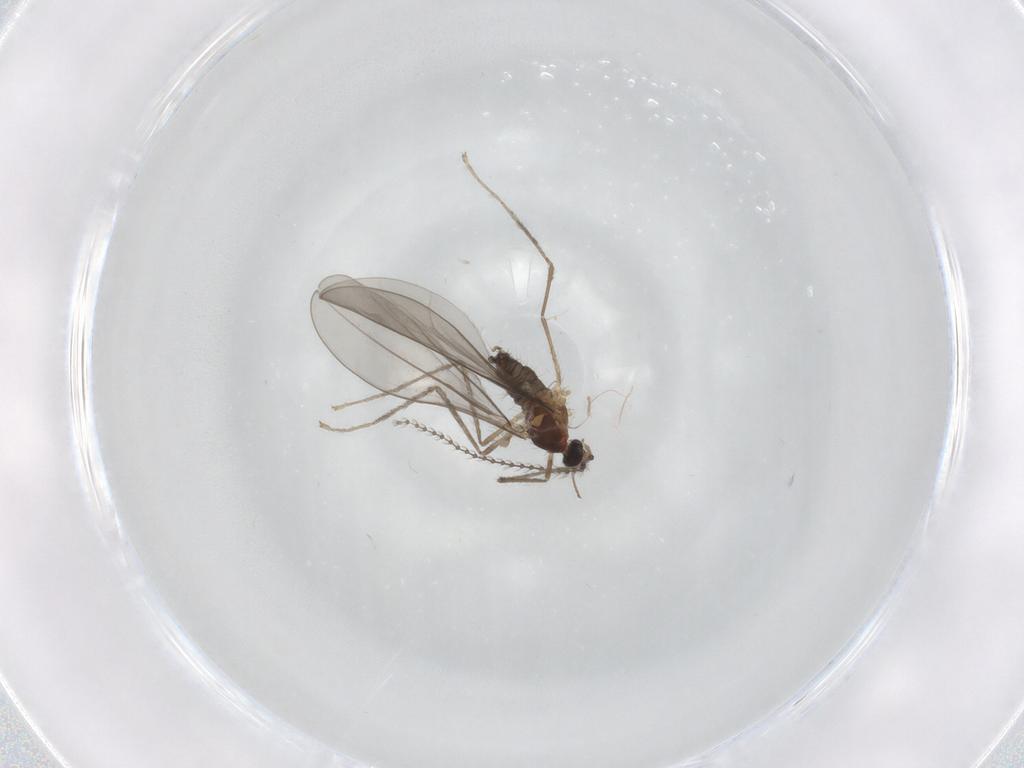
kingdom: Animalia
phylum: Arthropoda
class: Insecta
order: Diptera
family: Cecidomyiidae
